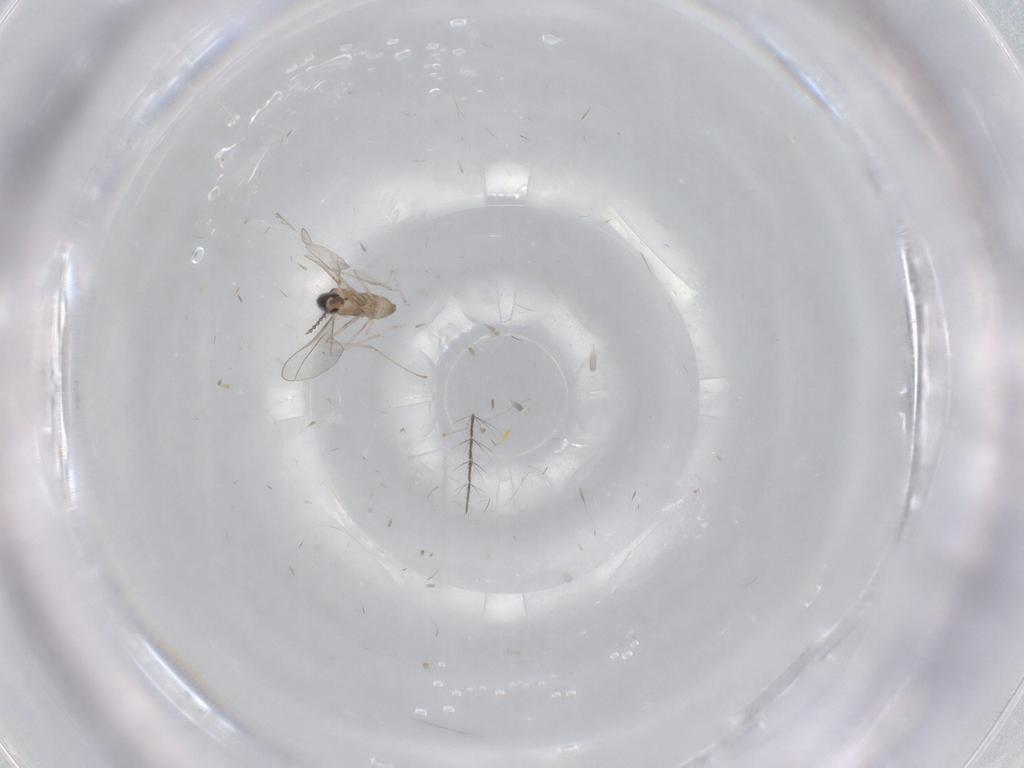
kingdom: Animalia
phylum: Arthropoda
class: Insecta
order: Diptera
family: Cecidomyiidae
